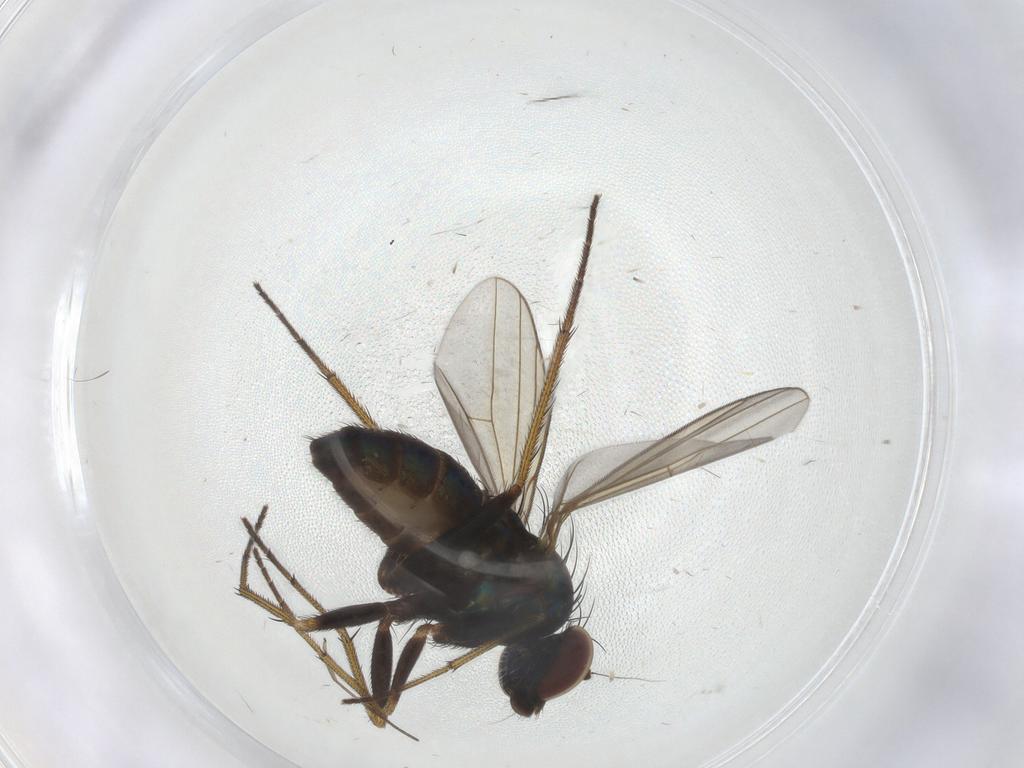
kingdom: Animalia
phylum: Arthropoda
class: Insecta
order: Diptera
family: Dolichopodidae
